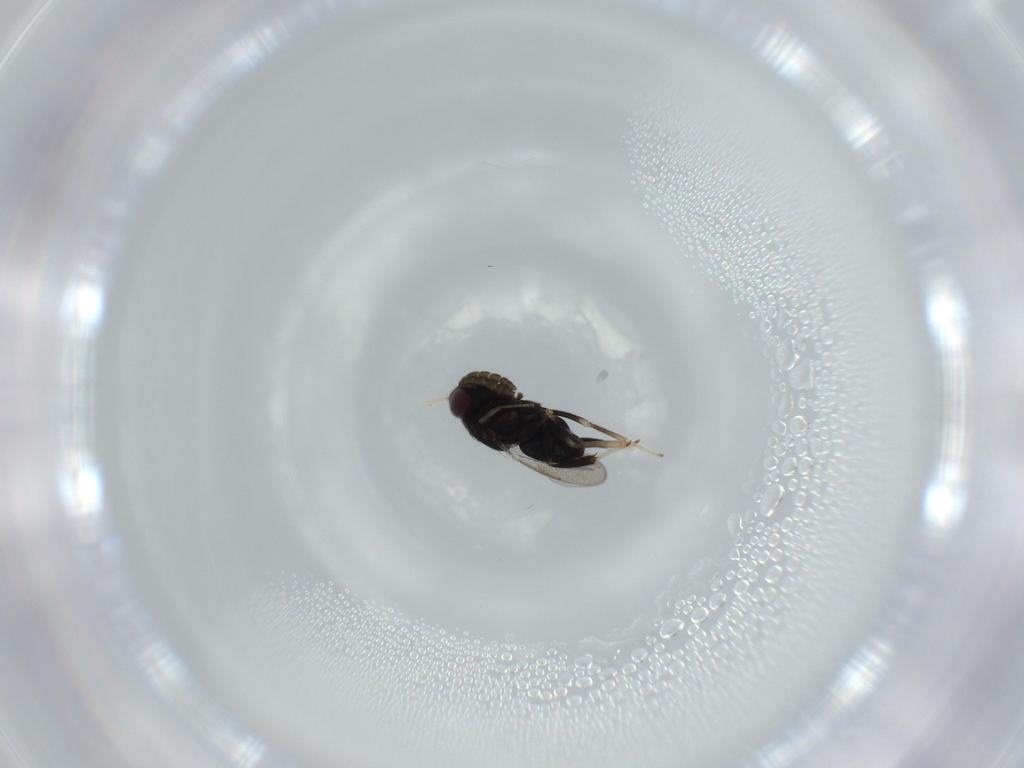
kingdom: Animalia
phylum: Arthropoda
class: Insecta
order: Hymenoptera
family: Aphelinidae
